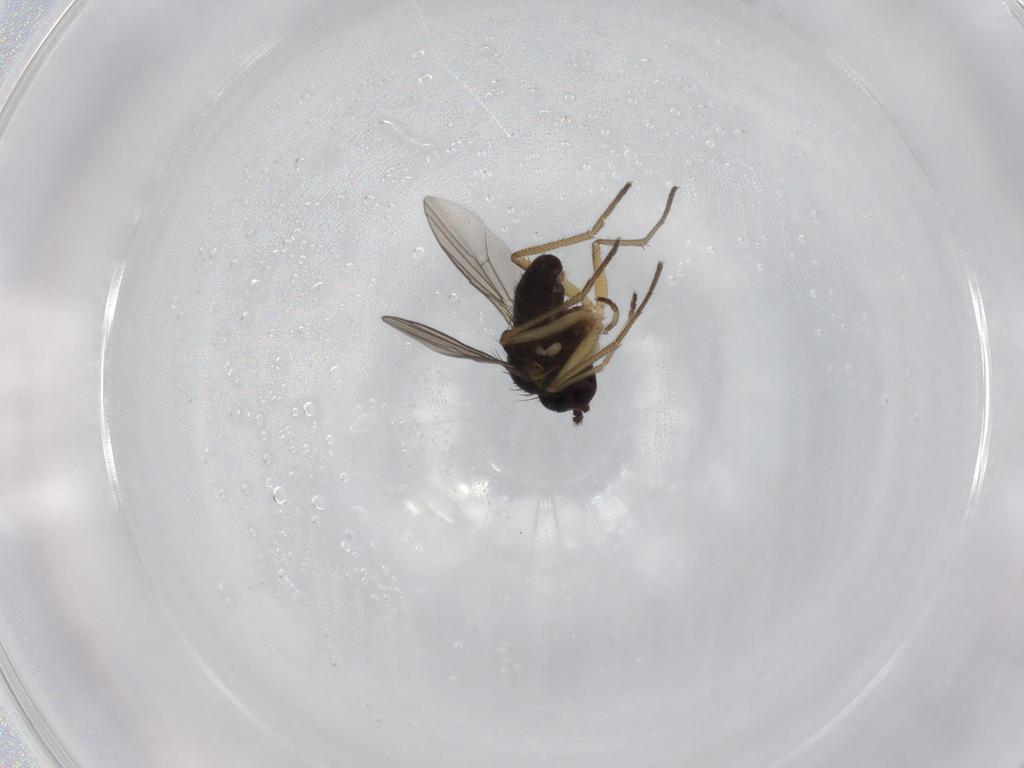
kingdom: Animalia
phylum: Arthropoda
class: Insecta
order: Diptera
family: Dolichopodidae
